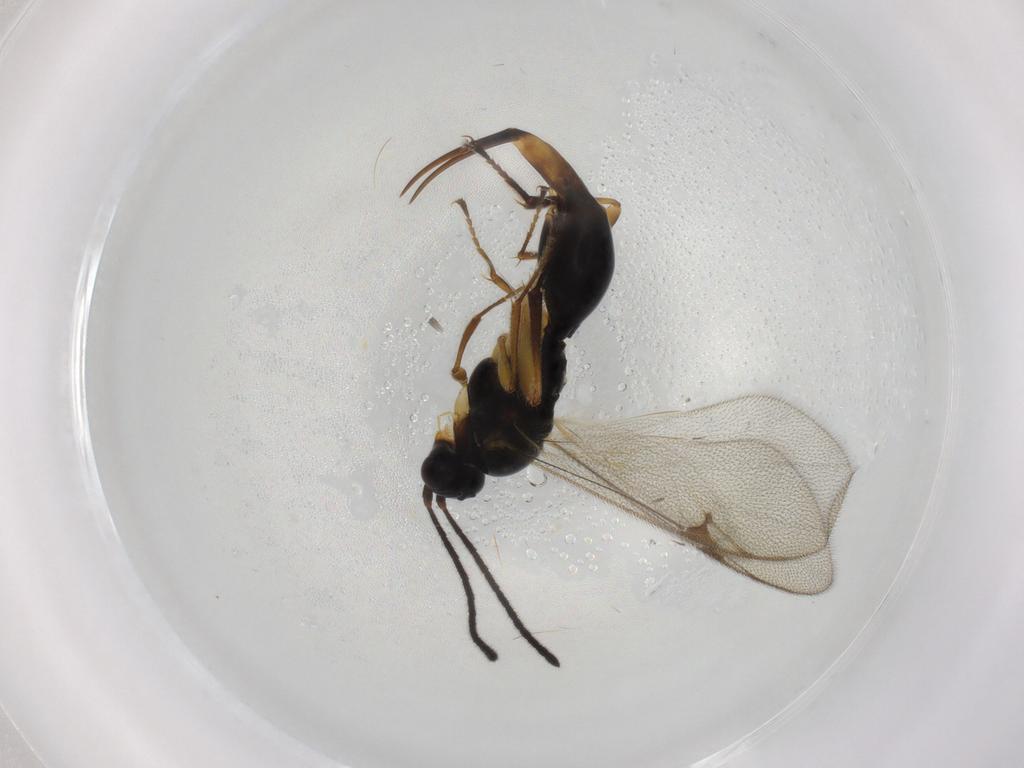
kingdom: Animalia
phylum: Arthropoda
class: Insecta
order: Hymenoptera
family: Proctotrupidae
